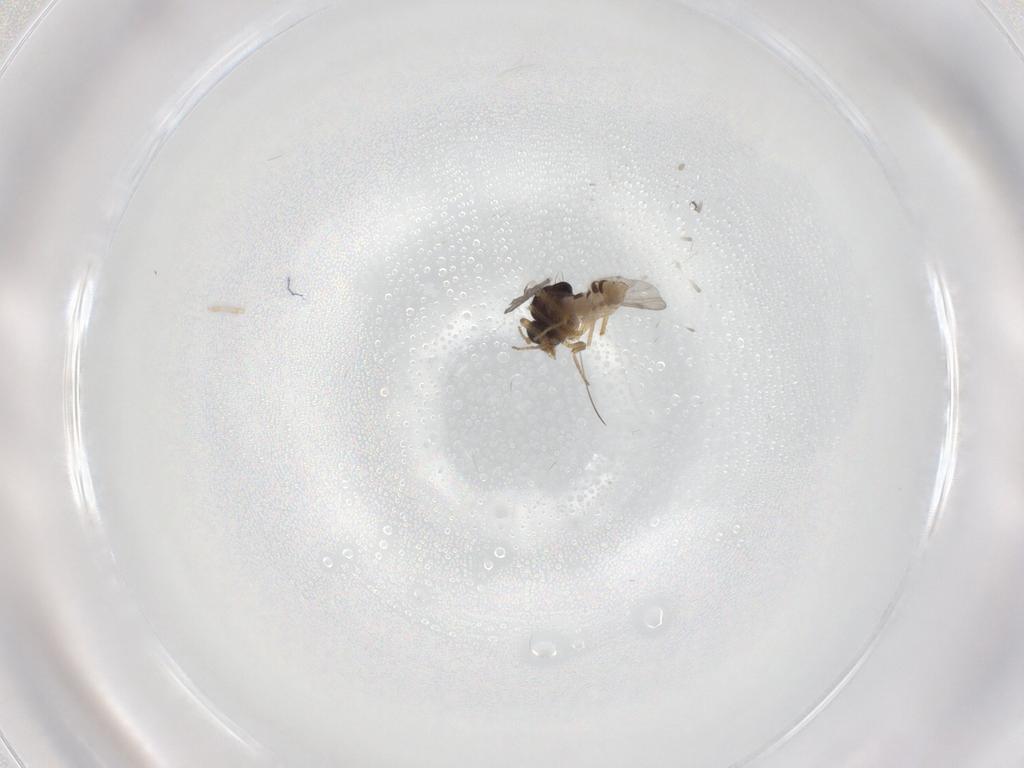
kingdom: Animalia
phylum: Arthropoda
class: Insecta
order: Diptera
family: Ceratopogonidae
